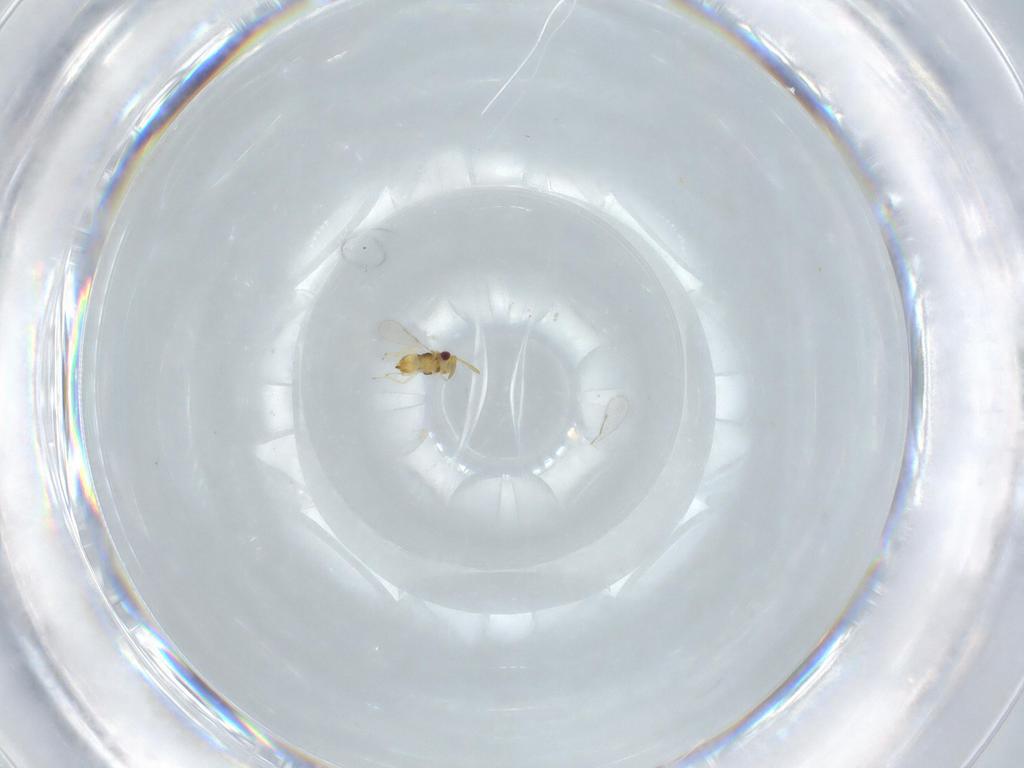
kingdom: Animalia
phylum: Arthropoda
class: Insecta
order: Hymenoptera
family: Aphelinidae
